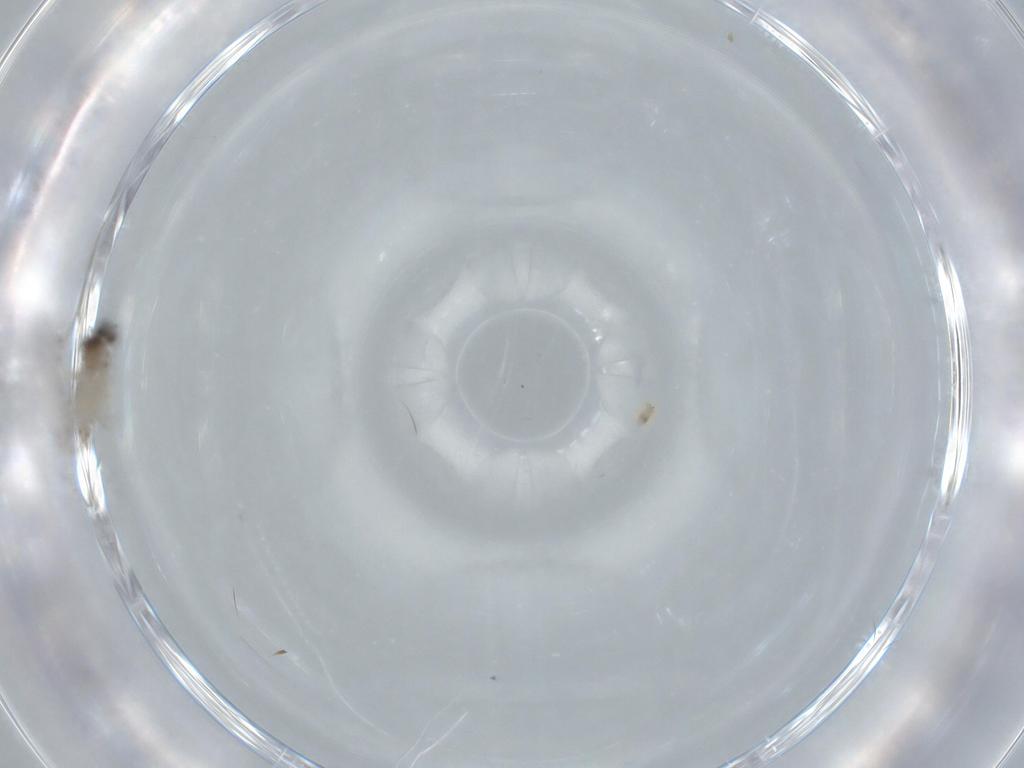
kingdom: Animalia
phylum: Arthropoda
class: Insecta
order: Diptera
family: Cecidomyiidae
